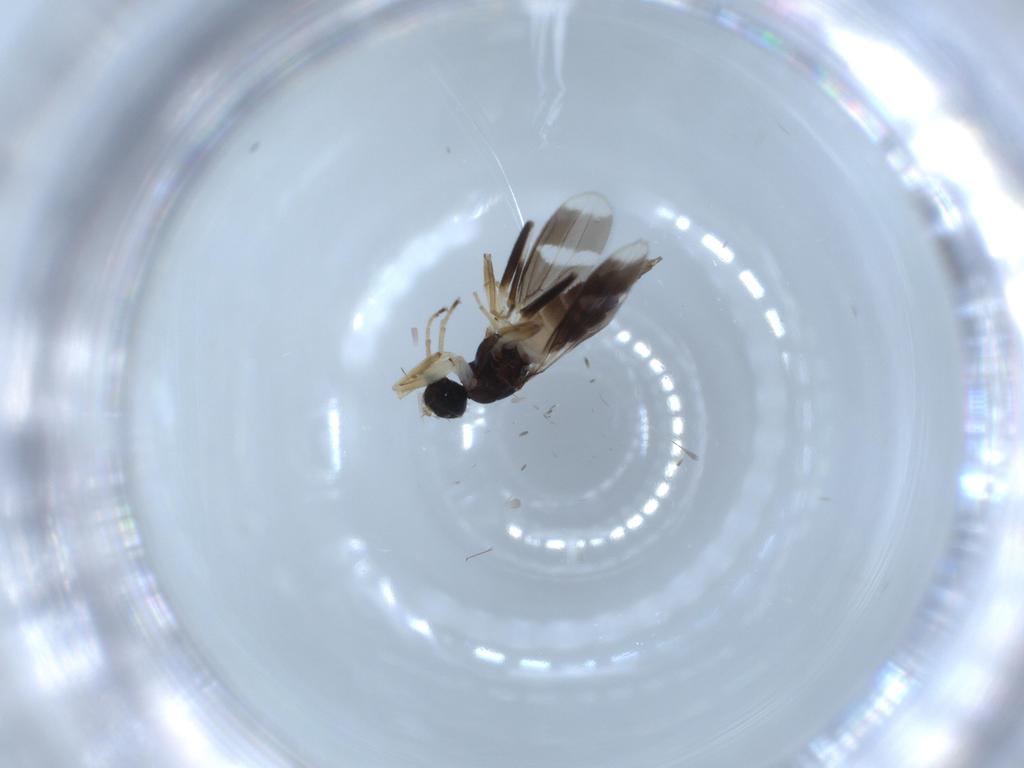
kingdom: Animalia
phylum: Arthropoda
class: Insecta
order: Diptera
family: Hybotidae
